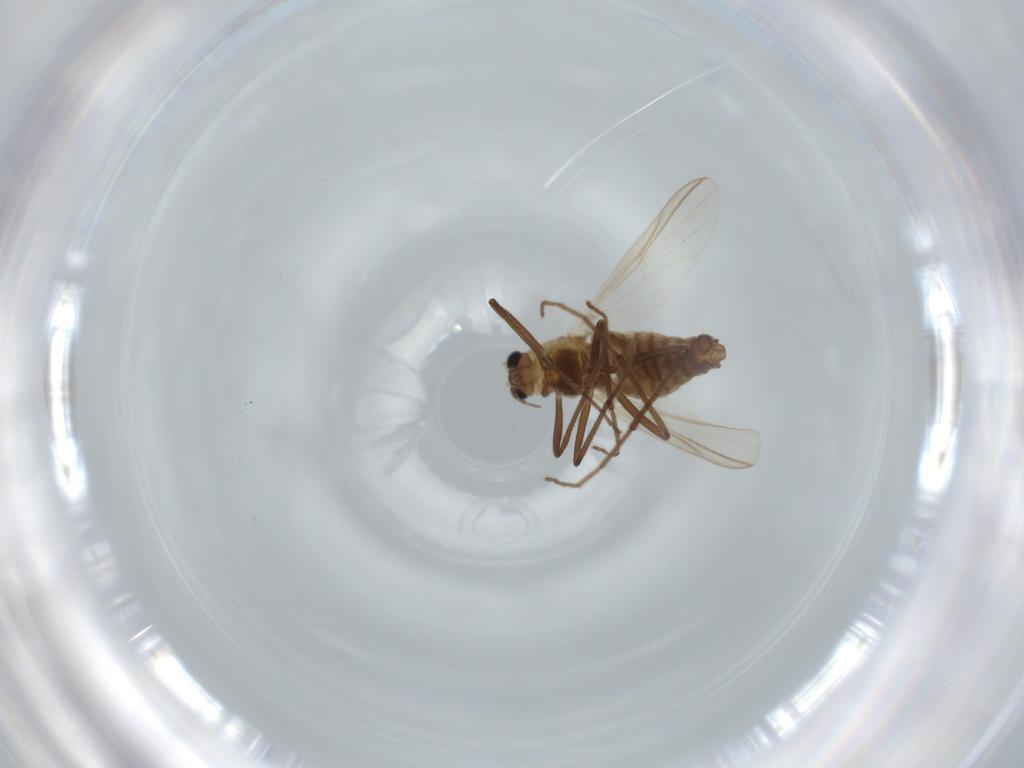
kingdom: Animalia
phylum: Arthropoda
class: Insecta
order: Diptera
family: Chironomidae
